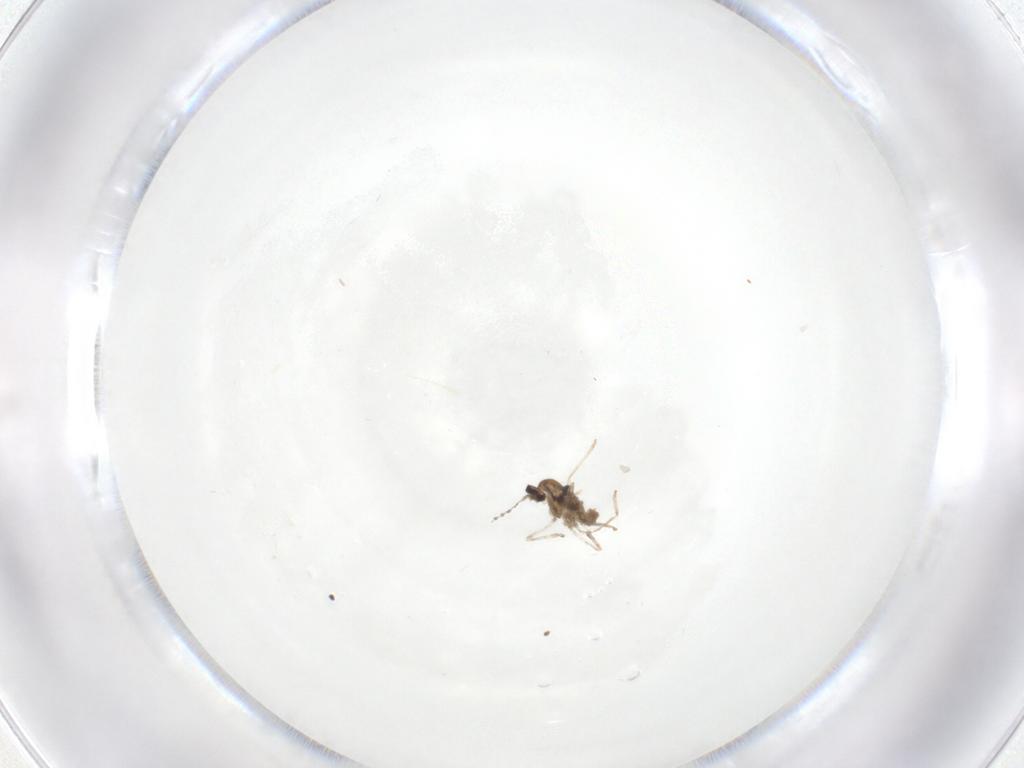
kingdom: Animalia
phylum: Arthropoda
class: Insecta
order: Diptera
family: Cecidomyiidae
